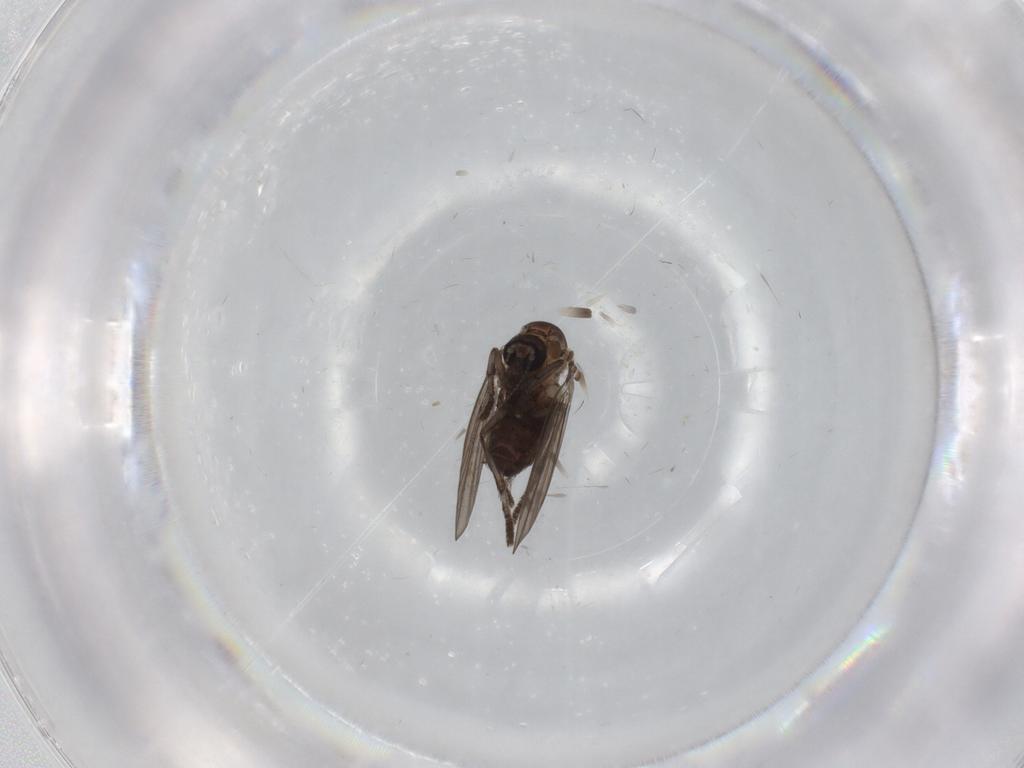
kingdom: Animalia
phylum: Arthropoda
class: Insecta
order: Diptera
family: Psychodidae
